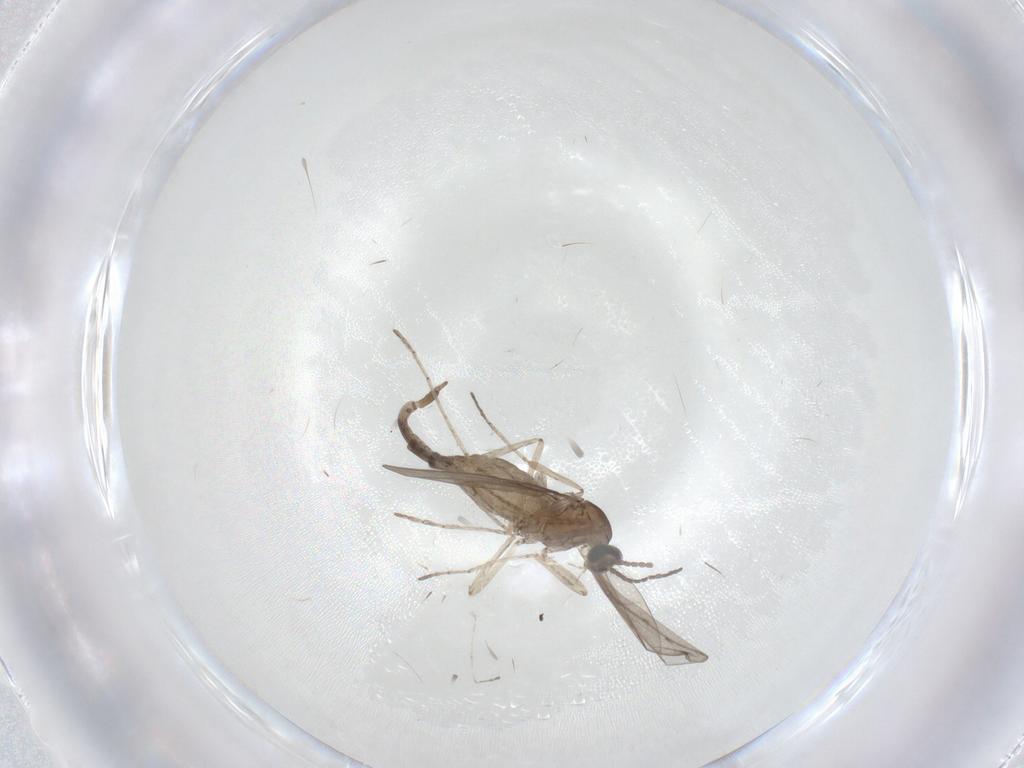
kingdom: Animalia
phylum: Arthropoda
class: Insecta
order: Diptera
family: Cecidomyiidae
